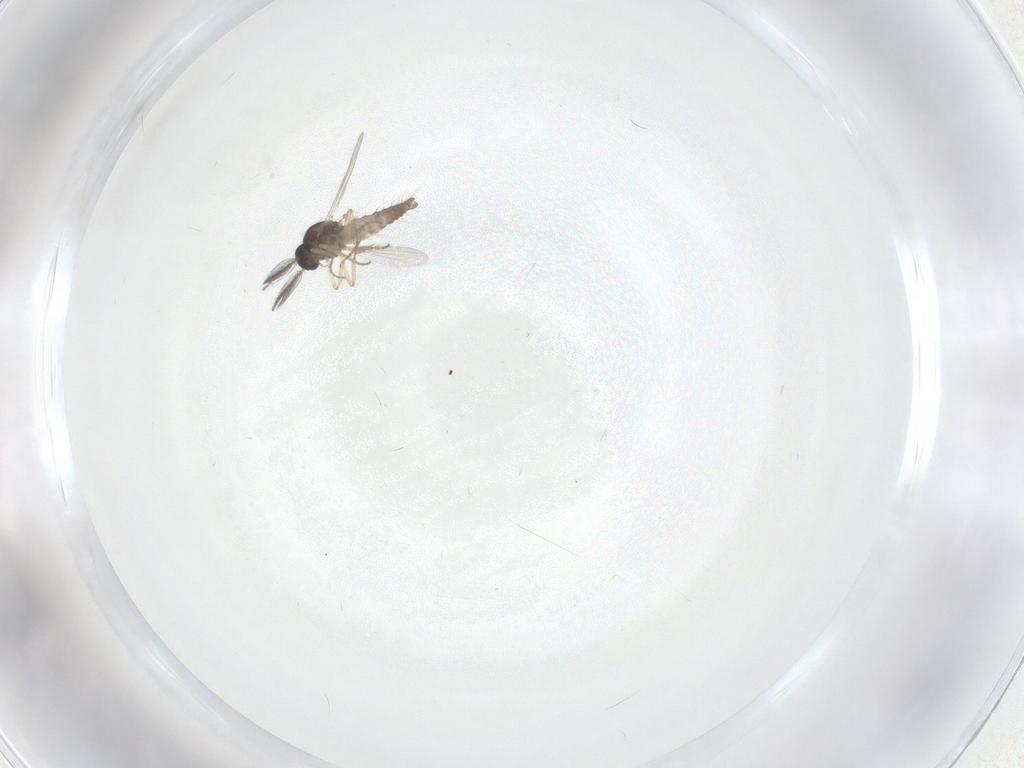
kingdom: Animalia
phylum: Arthropoda
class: Insecta
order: Diptera
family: Ceratopogonidae
